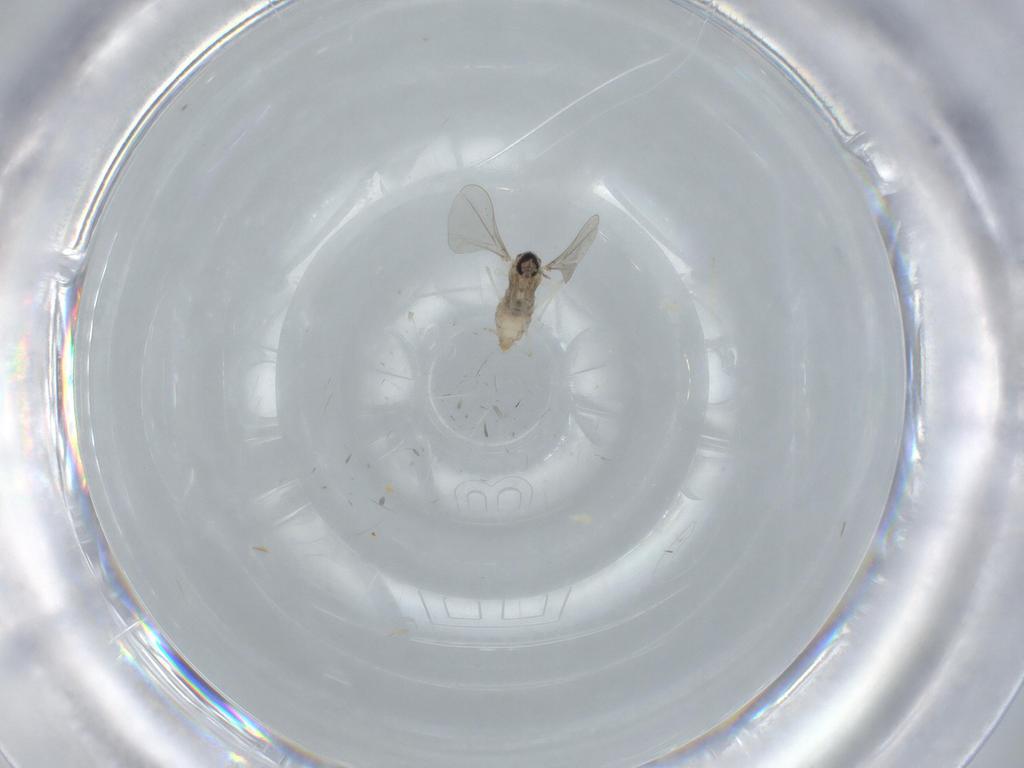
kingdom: Animalia
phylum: Arthropoda
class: Insecta
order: Diptera
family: Cecidomyiidae
